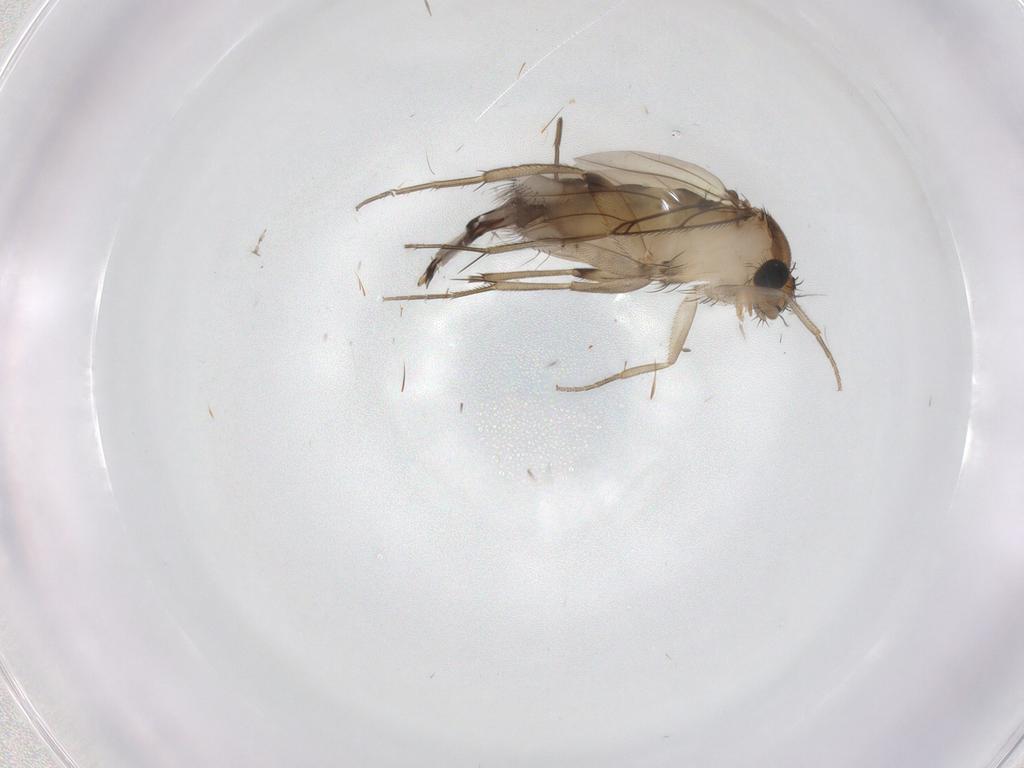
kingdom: Animalia
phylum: Arthropoda
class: Insecta
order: Diptera
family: Phoridae
